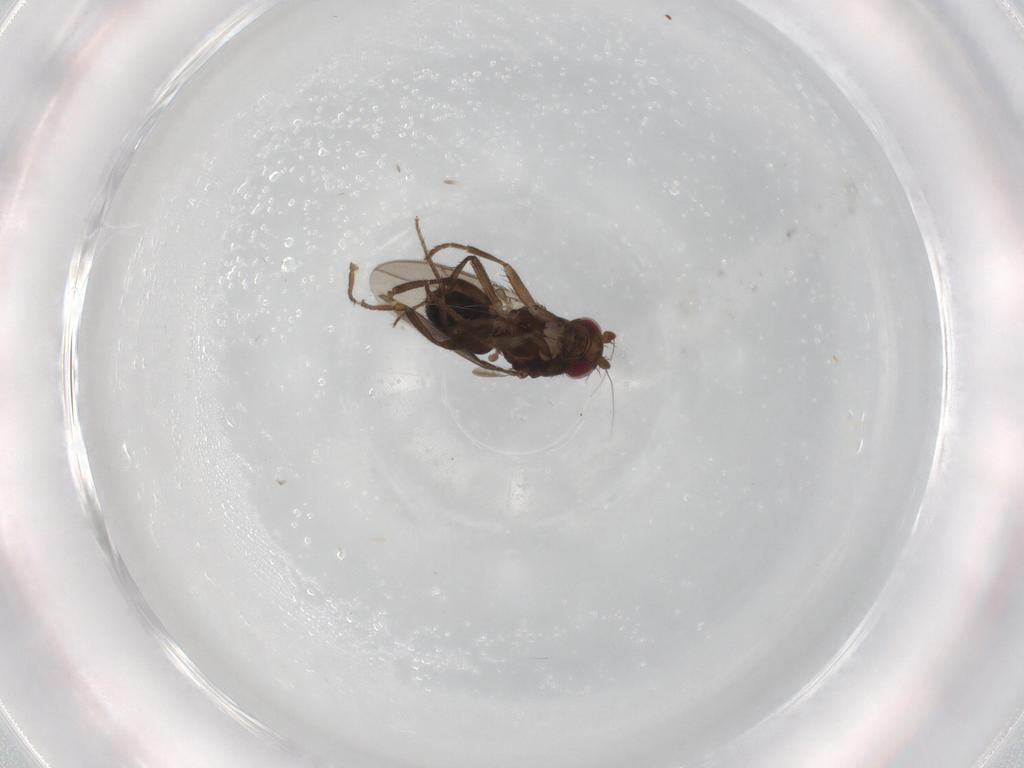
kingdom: Animalia
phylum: Arthropoda
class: Insecta
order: Diptera
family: Sphaeroceridae
